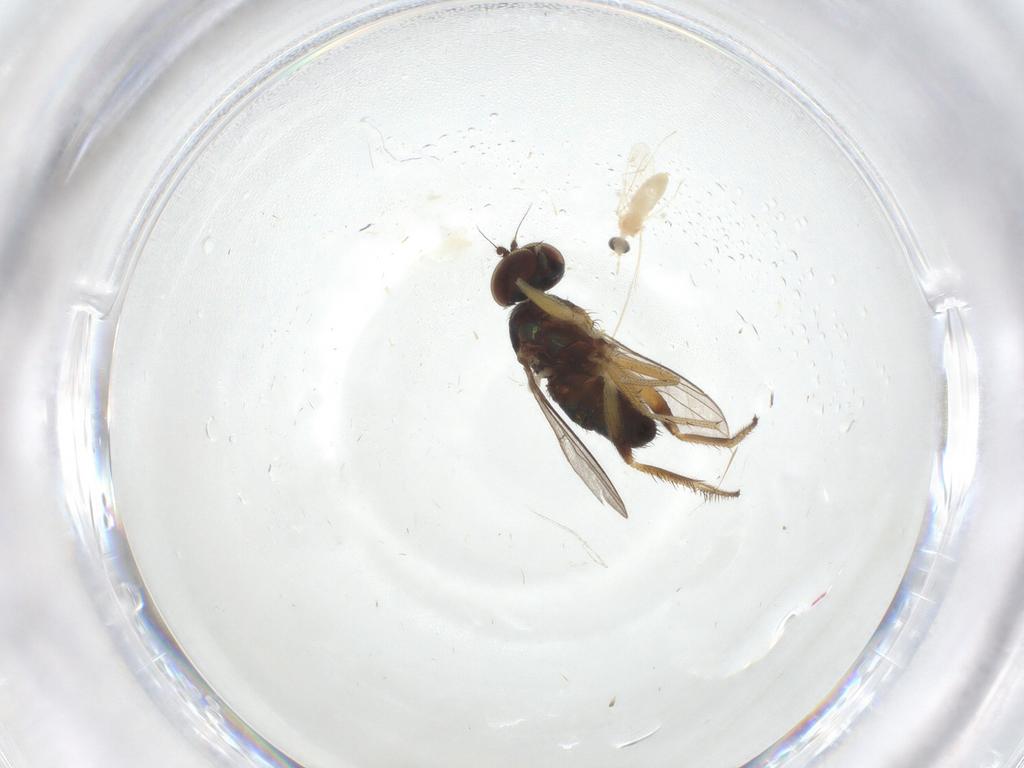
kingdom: Animalia
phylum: Arthropoda
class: Insecta
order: Diptera
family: Cecidomyiidae
